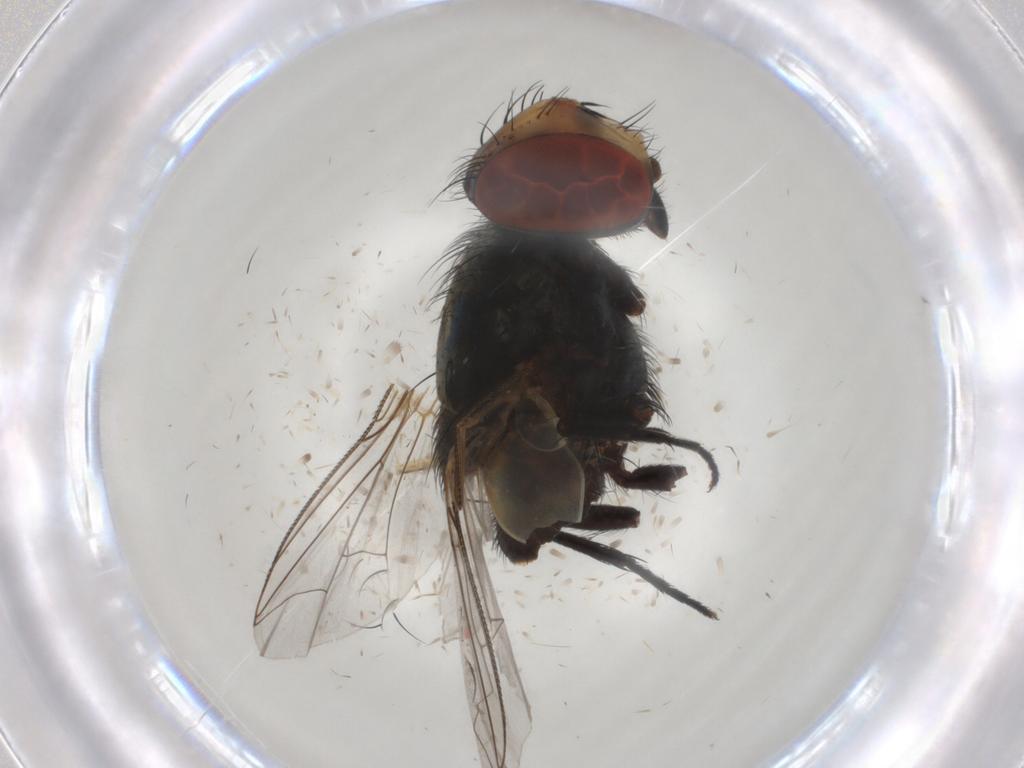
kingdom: Animalia
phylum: Arthropoda
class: Insecta
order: Diptera
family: Sarcophagidae
